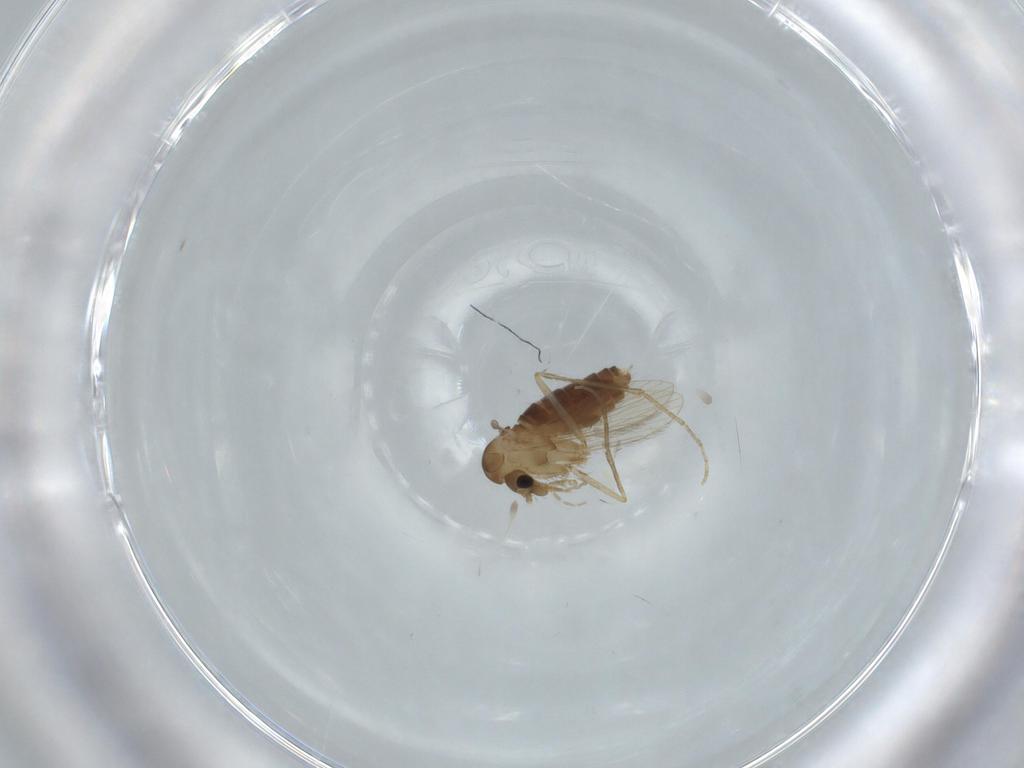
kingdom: Animalia
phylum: Arthropoda
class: Insecta
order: Diptera
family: Psychodidae
